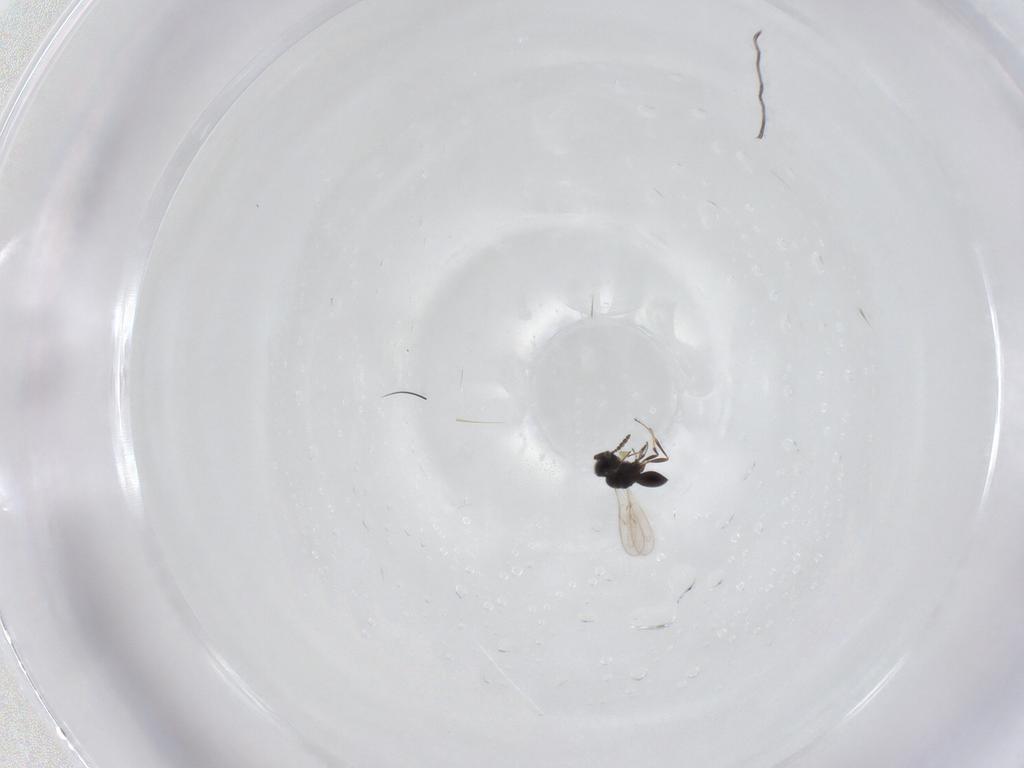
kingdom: Animalia
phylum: Arthropoda
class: Insecta
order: Hymenoptera
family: Scelionidae
